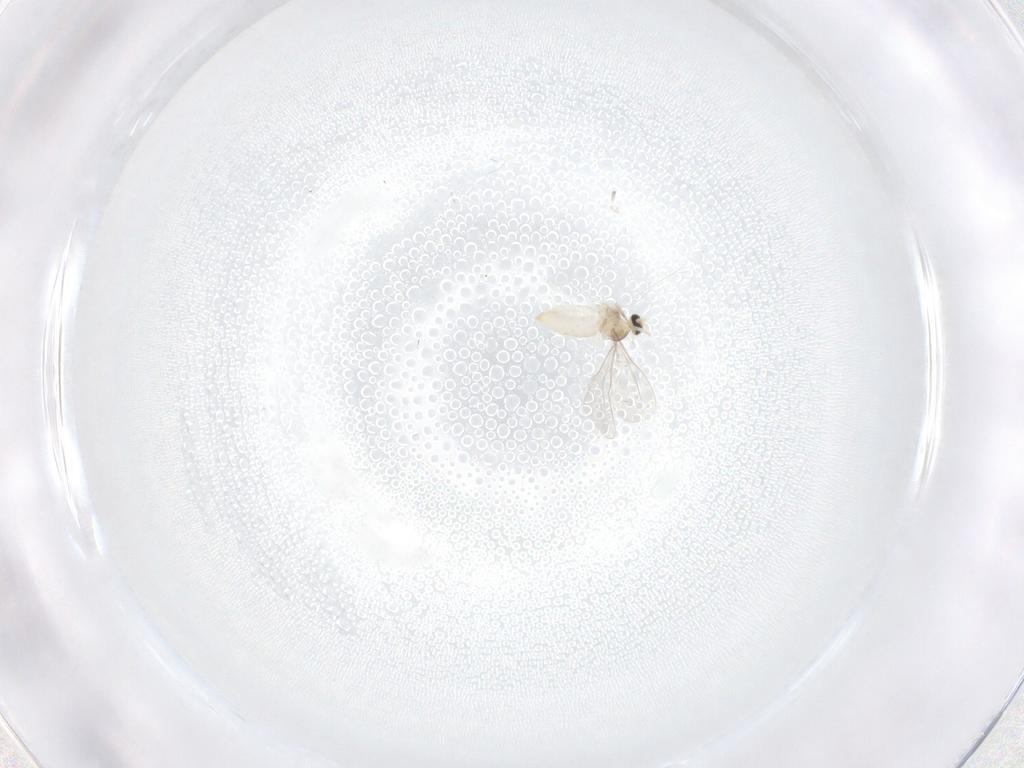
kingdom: Animalia
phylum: Arthropoda
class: Insecta
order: Diptera
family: Cecidomyiidae
